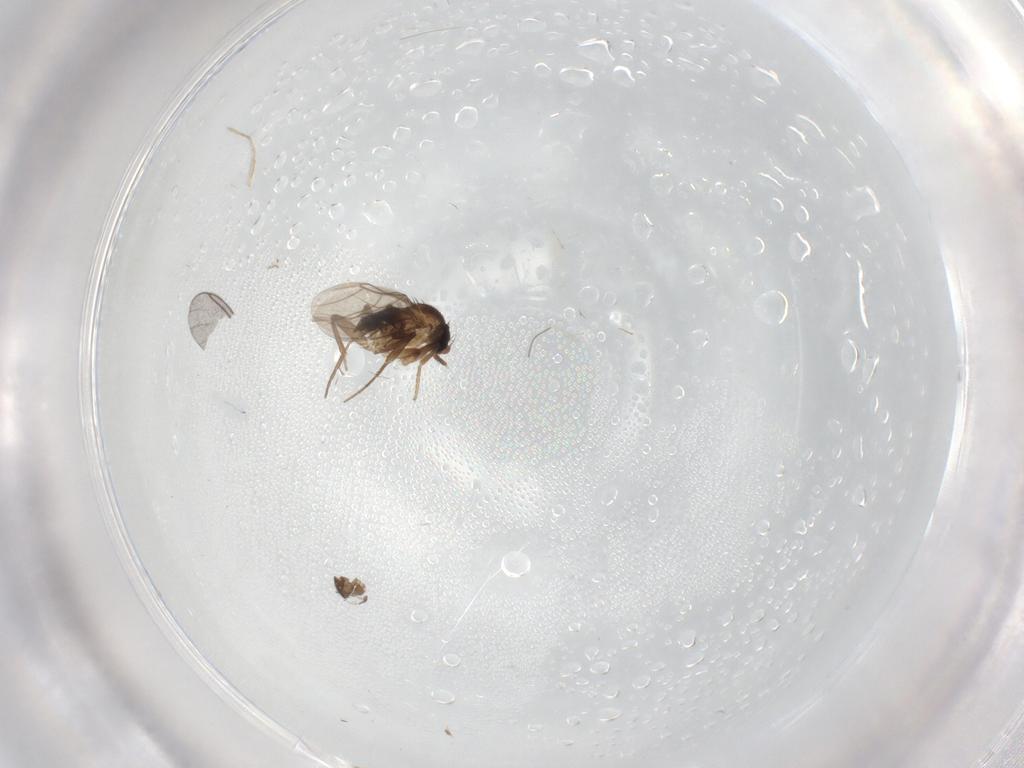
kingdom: Animalia
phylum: Arthropoda
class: Insecta
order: Diptera
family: Phoridae
